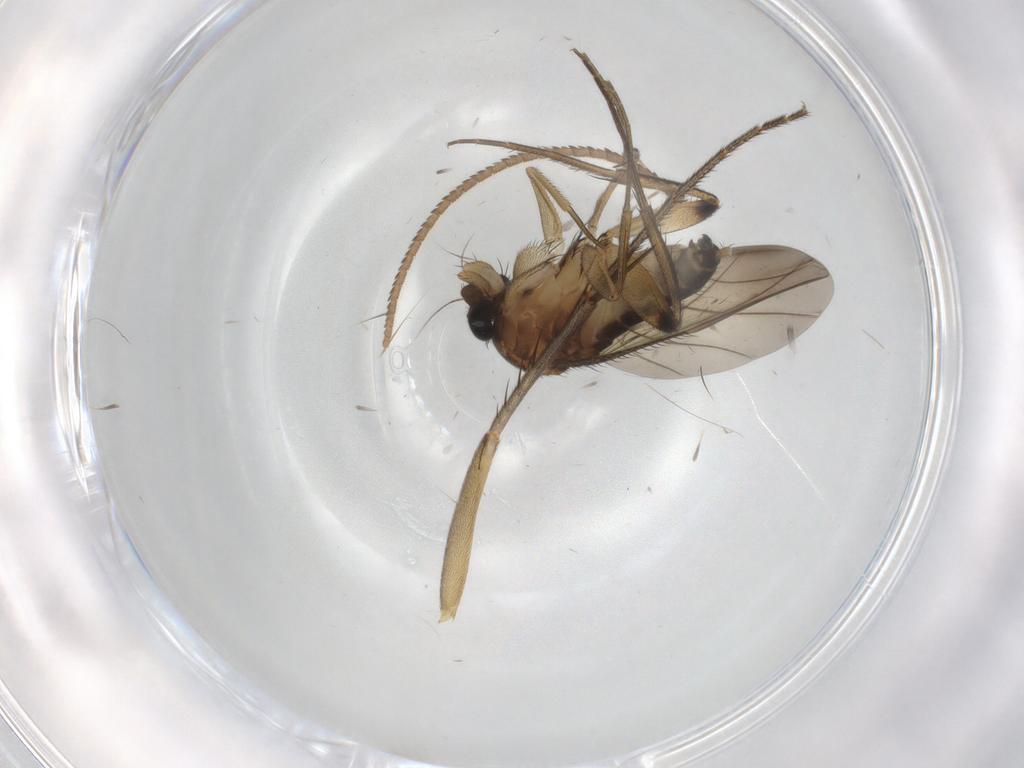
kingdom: Animalia
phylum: Arthropoda
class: Insecta
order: Diptera
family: Phoridae
